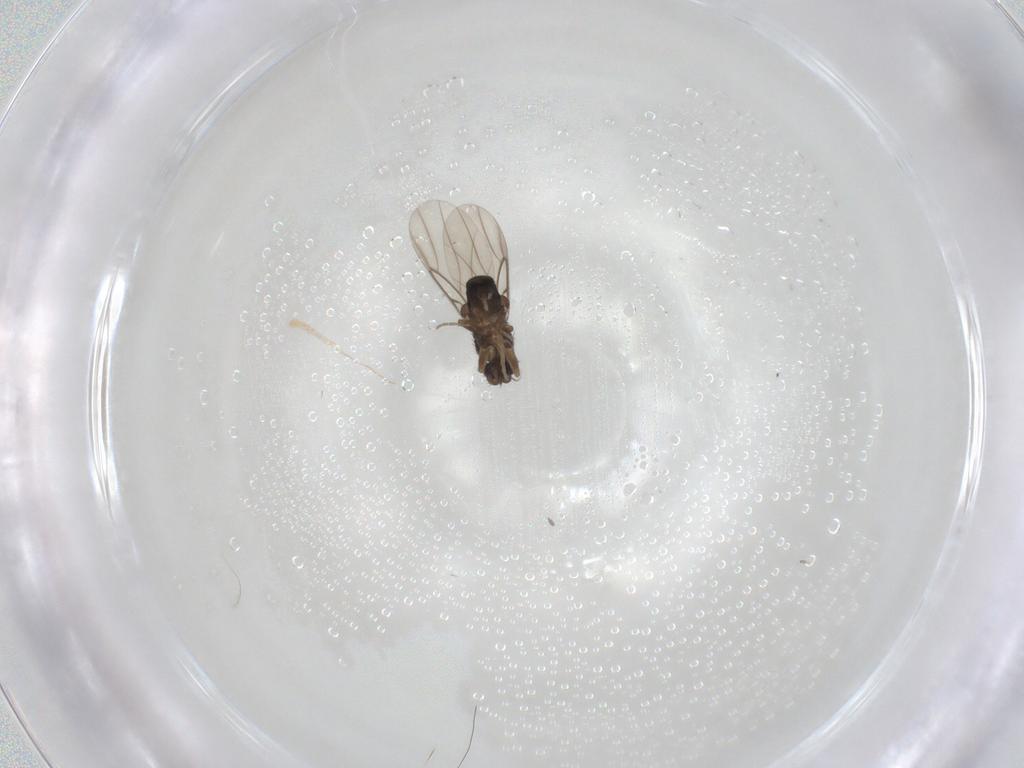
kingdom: Animalia
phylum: Arthropoda
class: Insecta
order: Diptera
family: Phoridae
